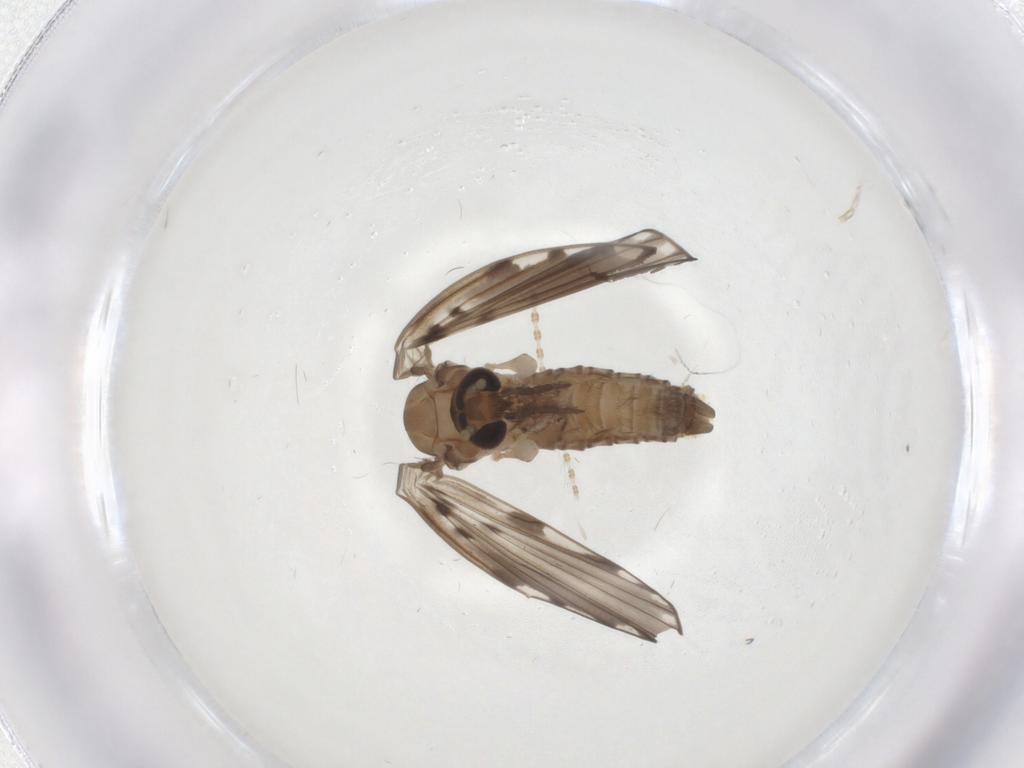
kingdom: Animalia
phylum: Arthropoda
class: Insecta
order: Diptera
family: Psychodidae
